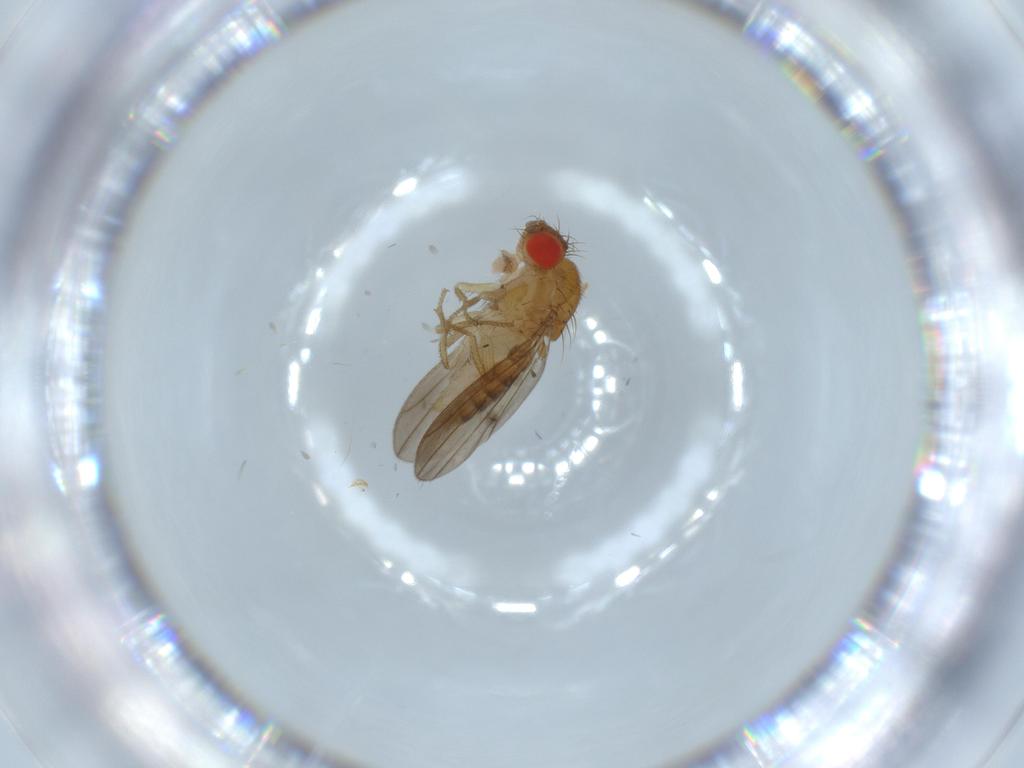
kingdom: Animalia
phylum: Arthropoda
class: Insecta
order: Diptera
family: Drosophilidae
